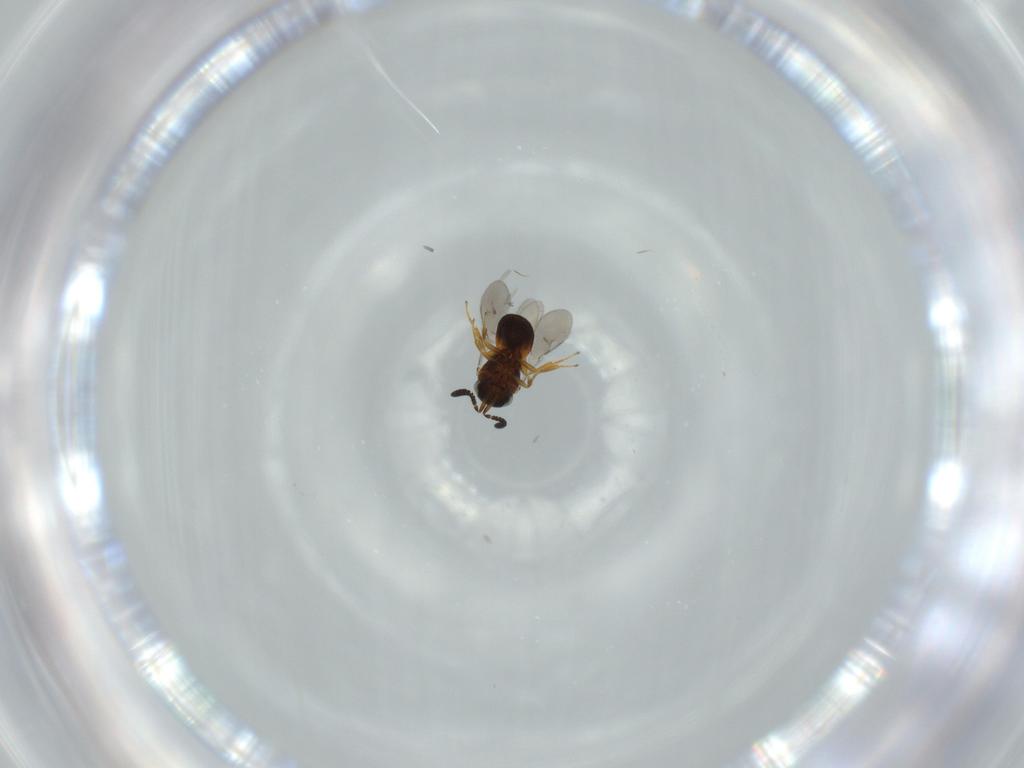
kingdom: Animalia
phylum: Arthropoda
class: Insecta
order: Hymenoptera
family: Scelionidae
